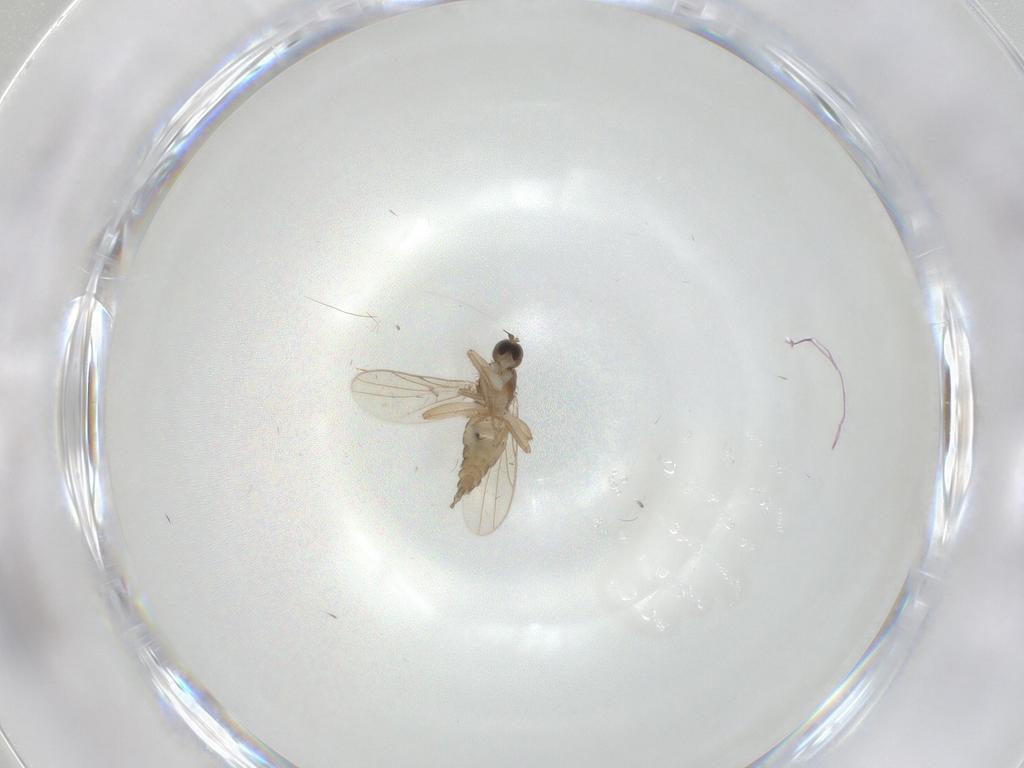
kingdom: Animalia
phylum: Arthropoda
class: Insecta
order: Diptera
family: Hybotidae
